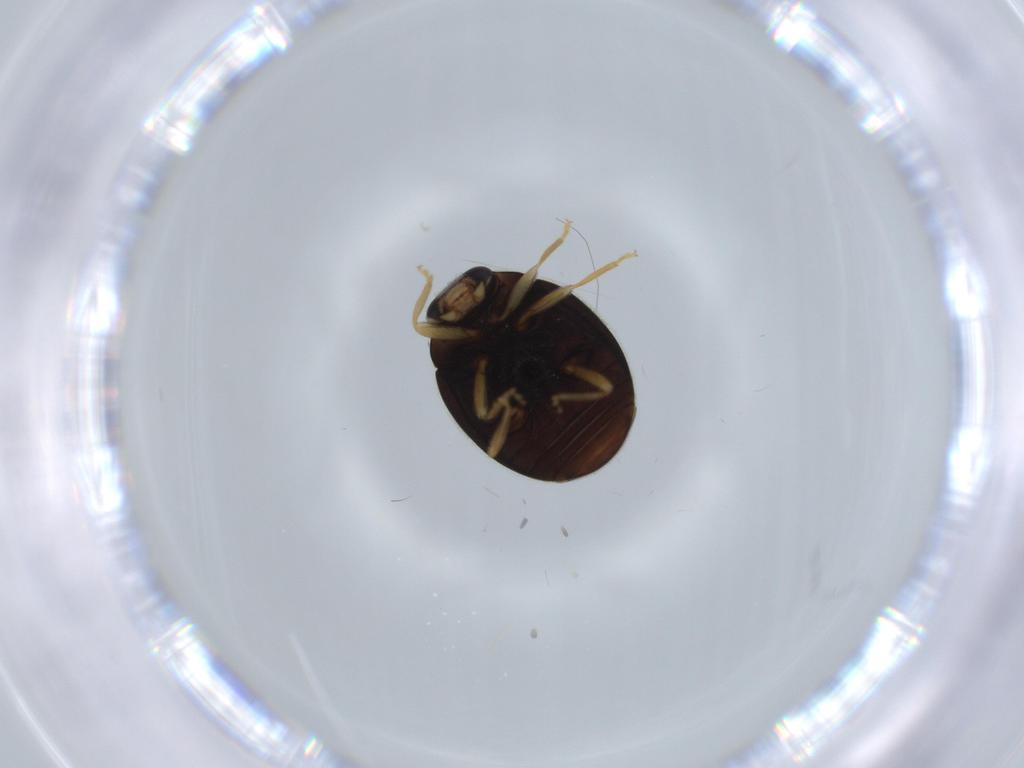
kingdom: Animalia
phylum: Arthropoda
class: Insecta
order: Coleoptera
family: Coccinellidae
